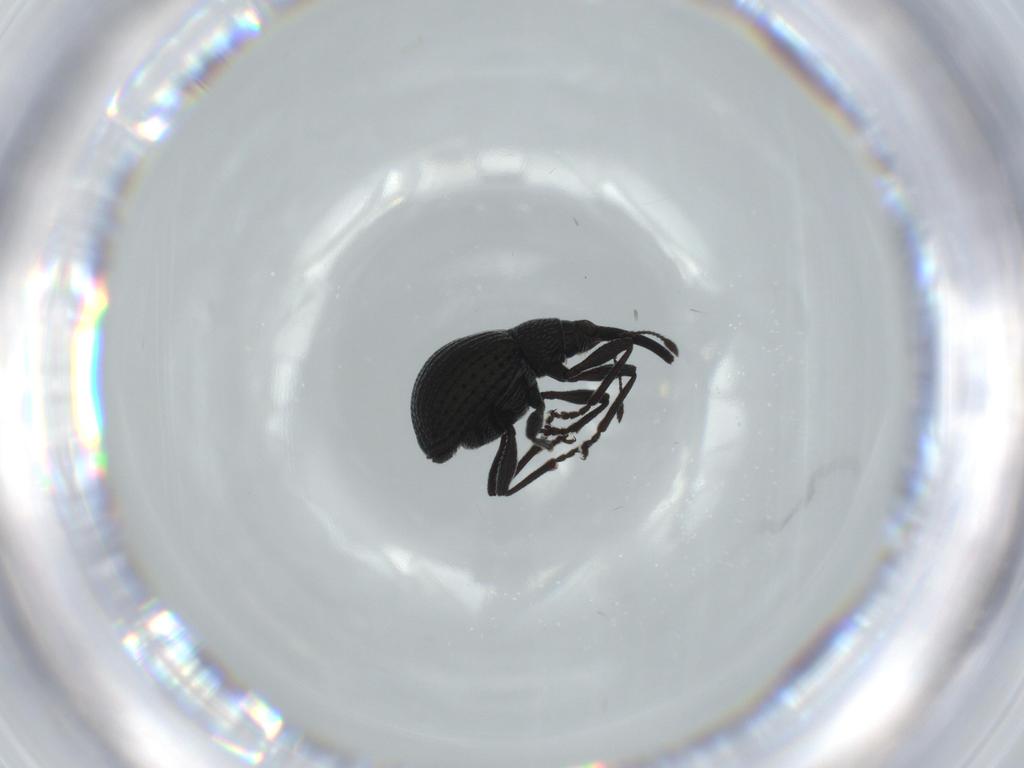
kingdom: Animalia
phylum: Arthropoda
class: Insecta
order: Coleoptera
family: Brentidae
